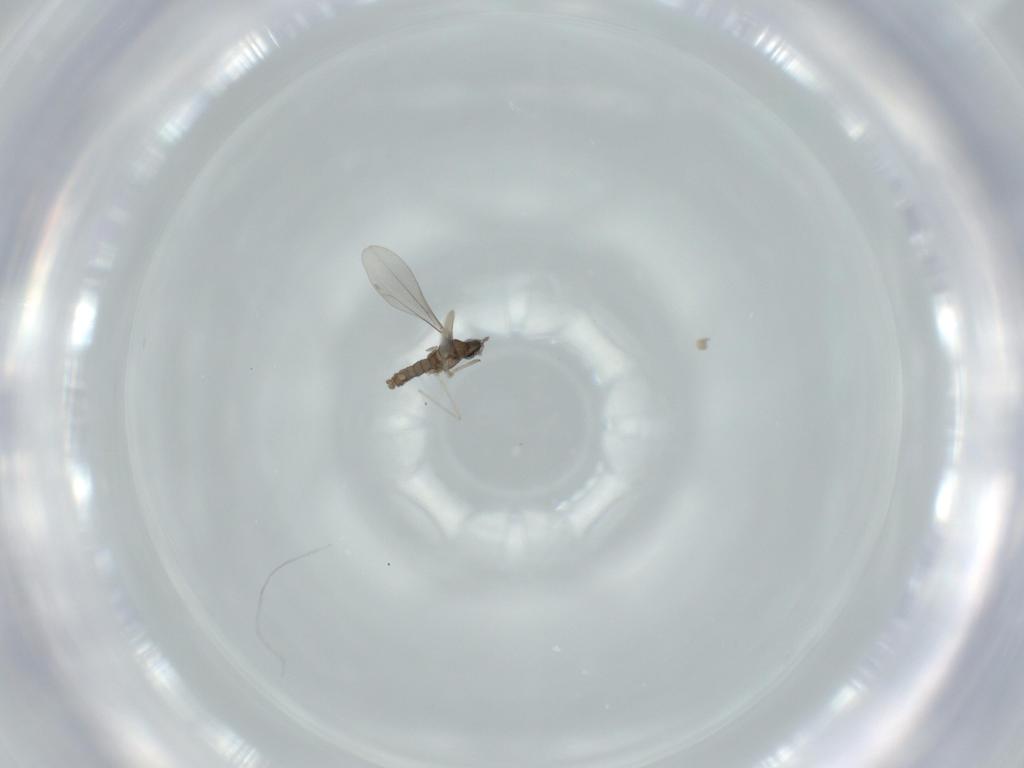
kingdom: Animalia
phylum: Arthropoda
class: Insecta
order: Diptera
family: Cecidomyiidae
